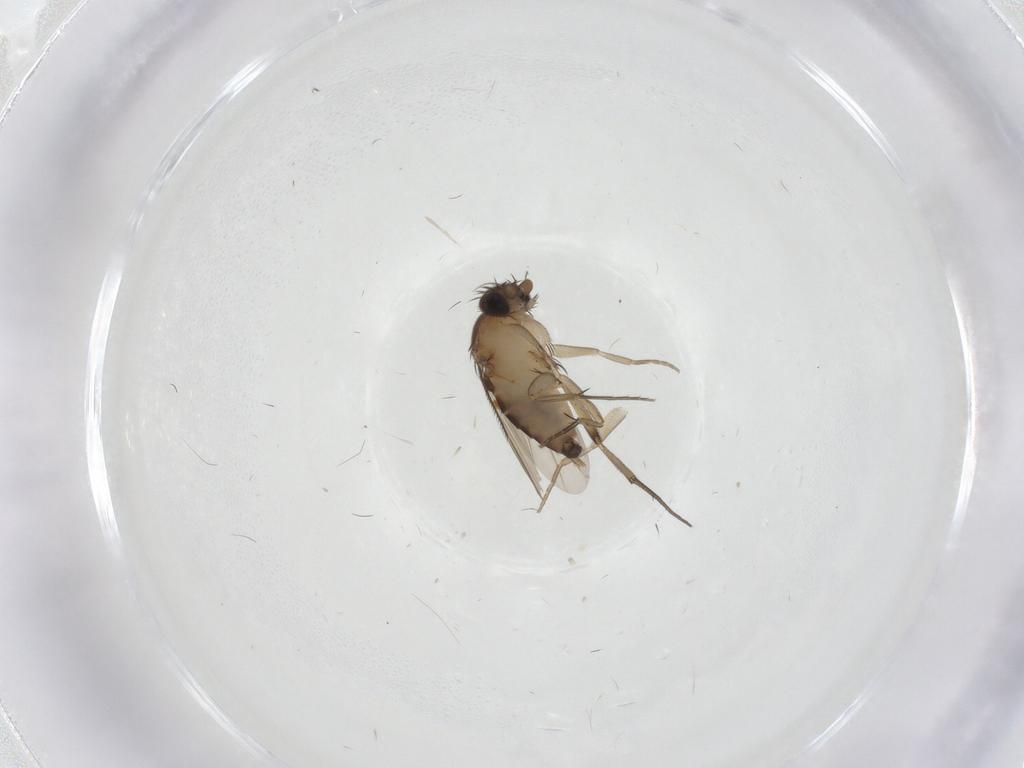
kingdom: Animalia
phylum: Arthropoda
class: Insecta
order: Diptera
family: Phoridae
